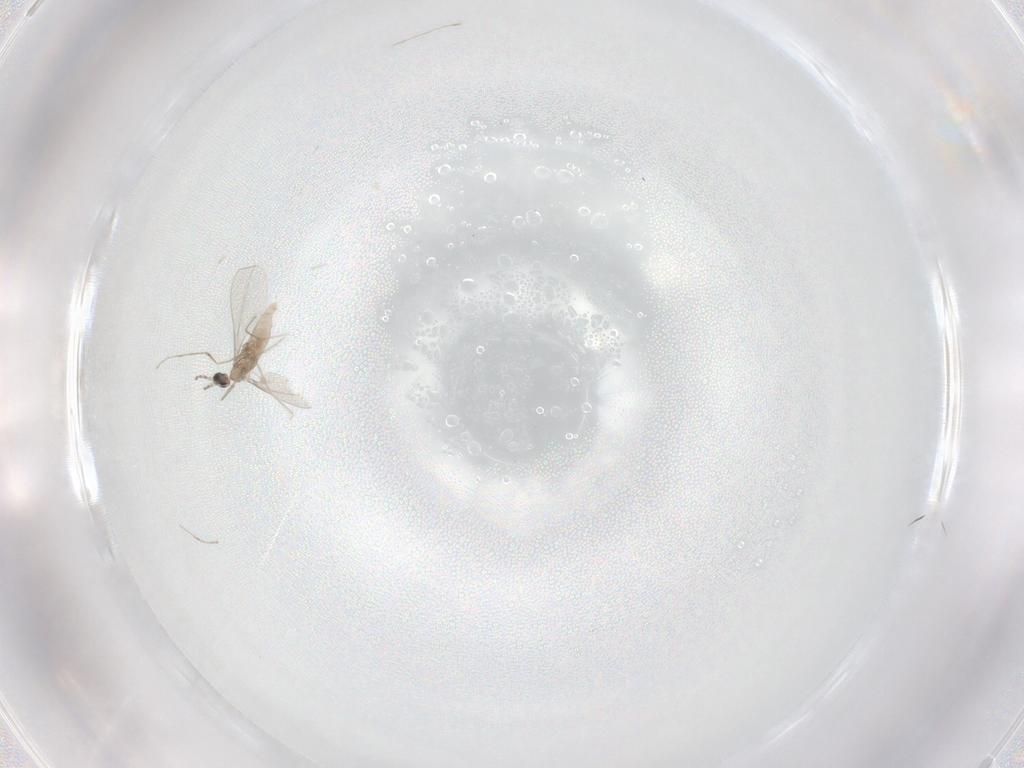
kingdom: Animalia
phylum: Arthropoda
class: Insecta
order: Diptera
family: Cecidomyiidae
